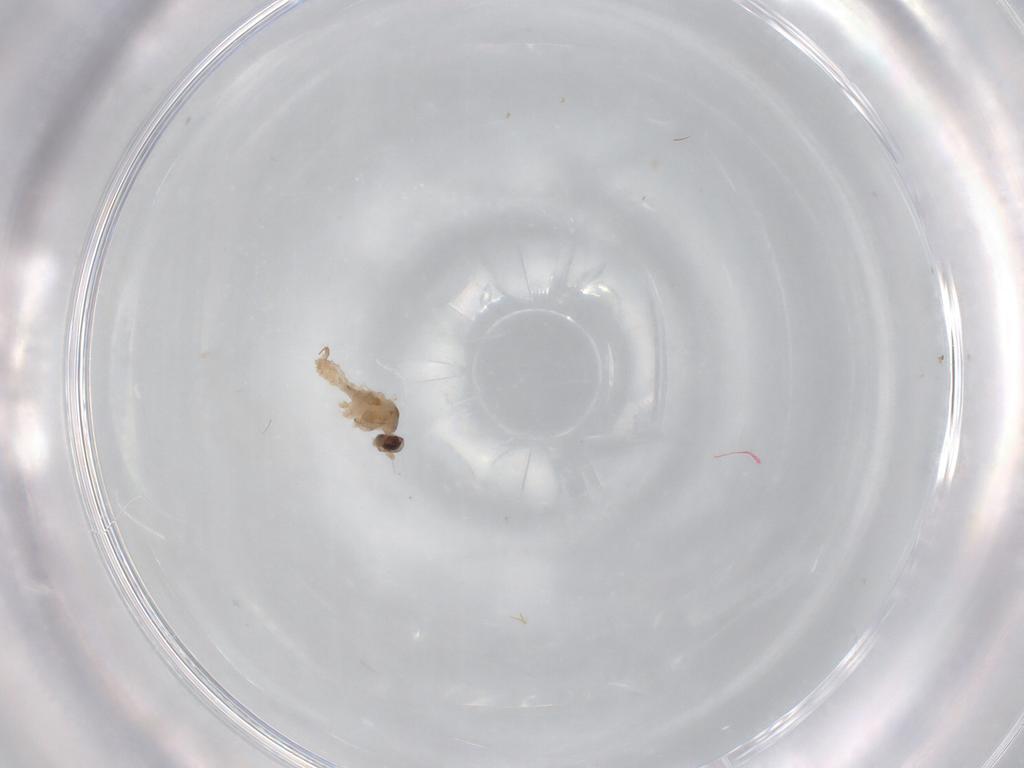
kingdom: Animalia
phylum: Arthropoda
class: Insecta
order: Diptera
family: Cecidomyiidae
